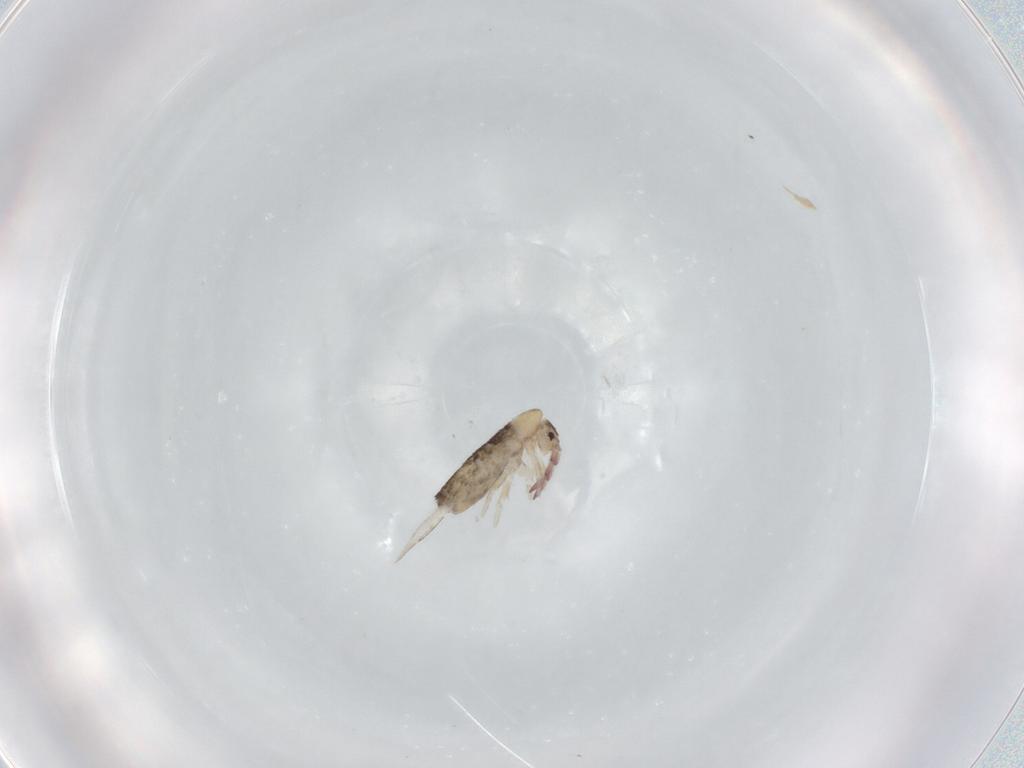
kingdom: Animalia
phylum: Arthropoda
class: Collembola
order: Entomobryomorpha
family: Entomobryidae
